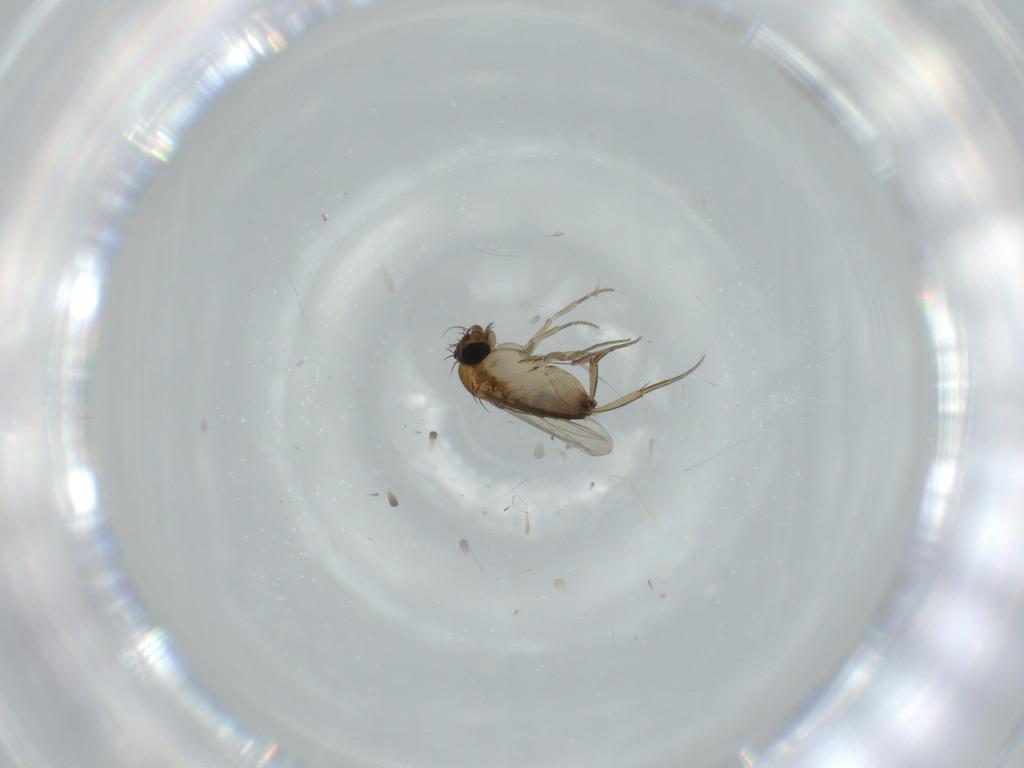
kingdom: Animalia
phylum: Arthropoda
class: Insecta
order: Diptera
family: Phoridae
